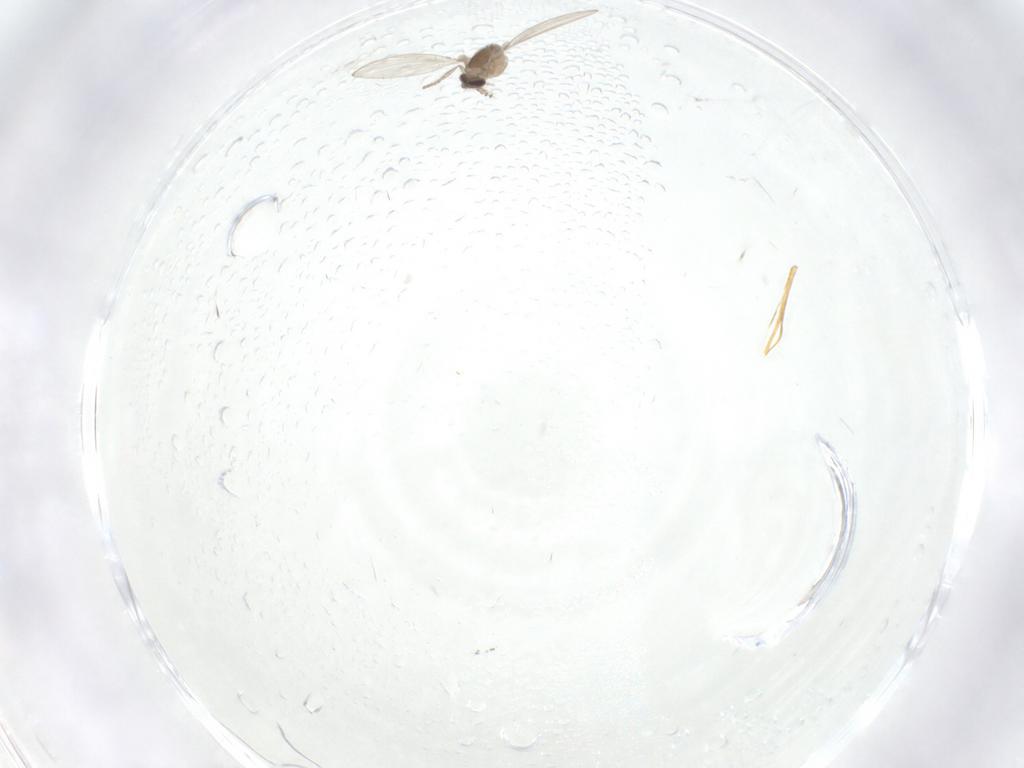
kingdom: Animalia
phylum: Arthropoda
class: Insecta
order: Diptera
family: Psychodidae
